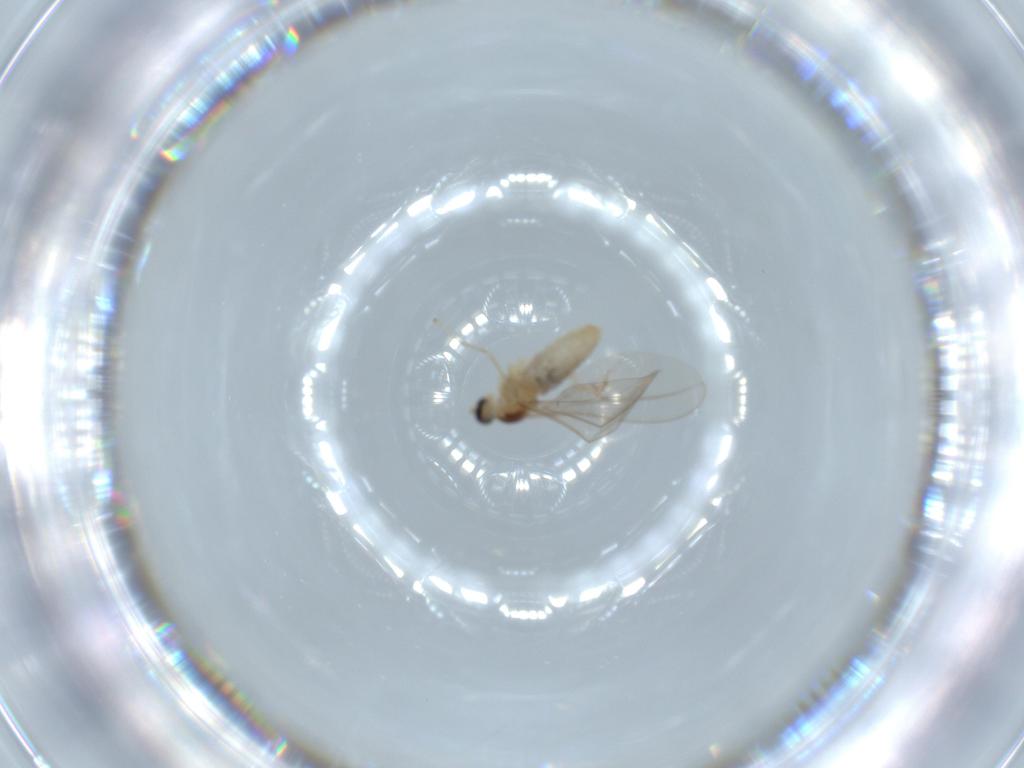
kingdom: Animalia
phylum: Arthropoda
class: Insecta
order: Diptera
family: Cecidomyiidae
